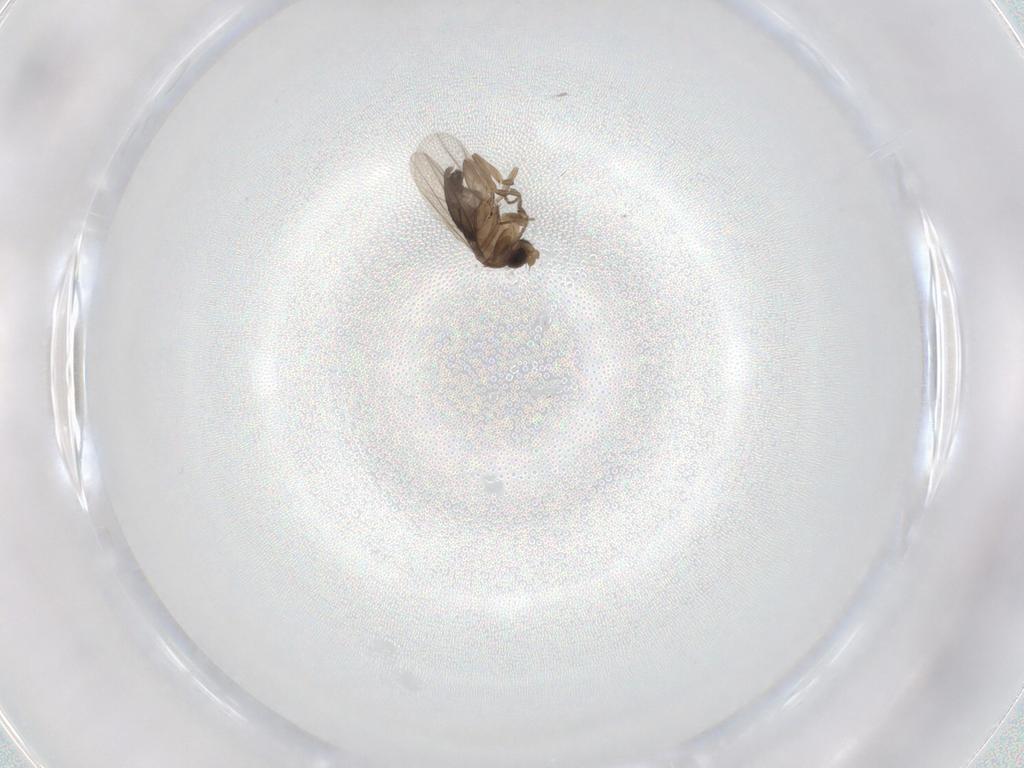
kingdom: Animalia
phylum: Arthropoda
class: Insecta
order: Diptera
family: Phoridae
